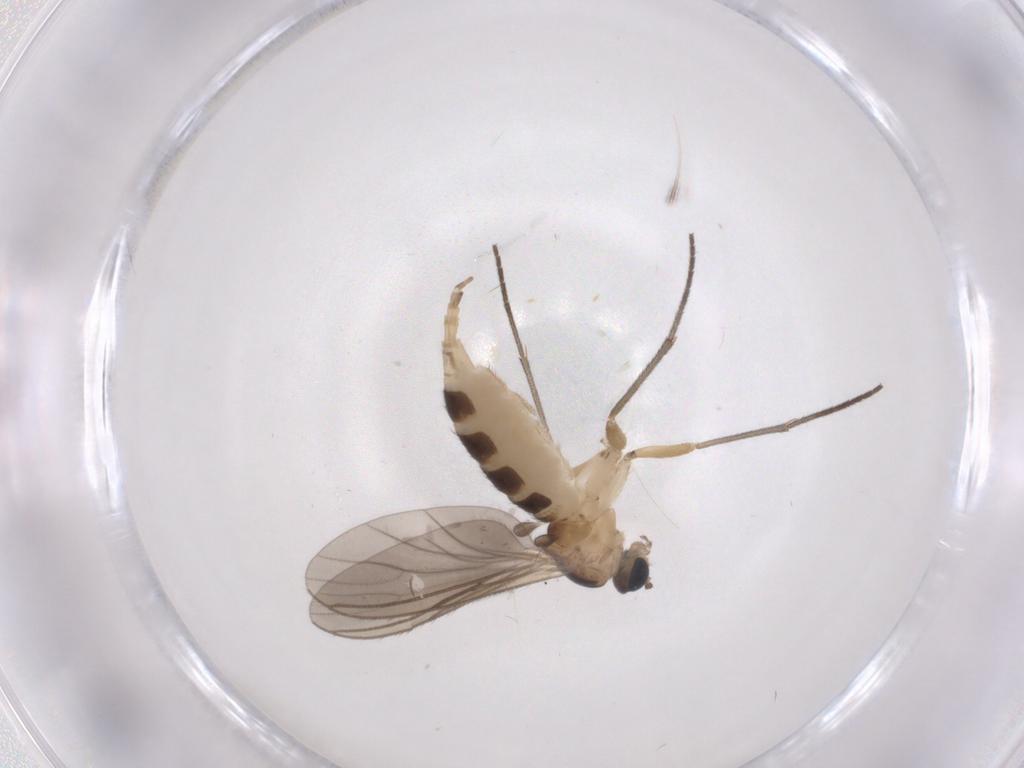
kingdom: Animalia
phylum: Arthropoda
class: Insecta
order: Diptera
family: Sciaridae
